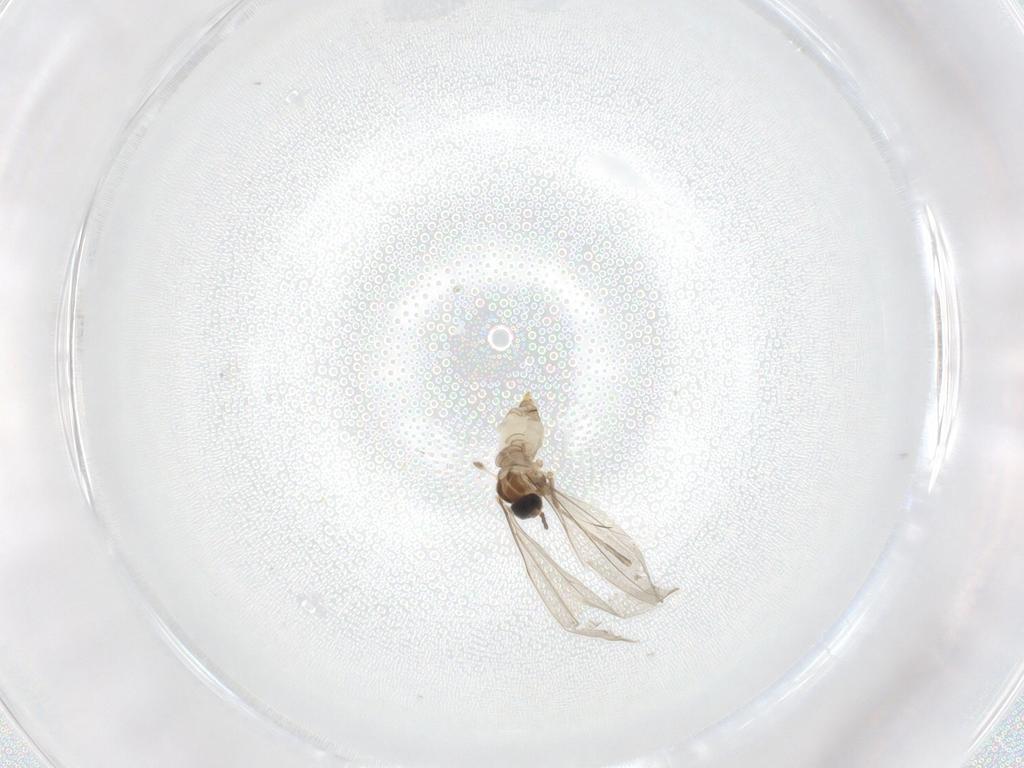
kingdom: Animalia
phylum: Arthropoda
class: Insecta
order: Diptera
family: Cecidomyiidae
